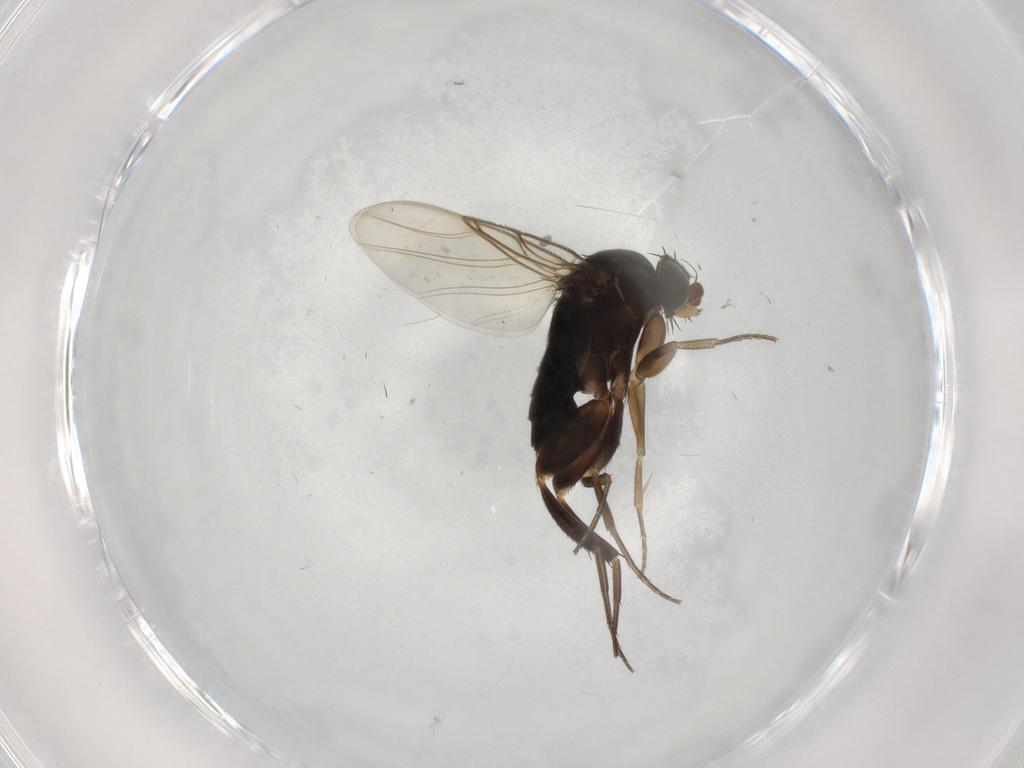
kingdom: Animalia
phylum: Arthropoda
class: Insecta
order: Diptera
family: Phoridae
